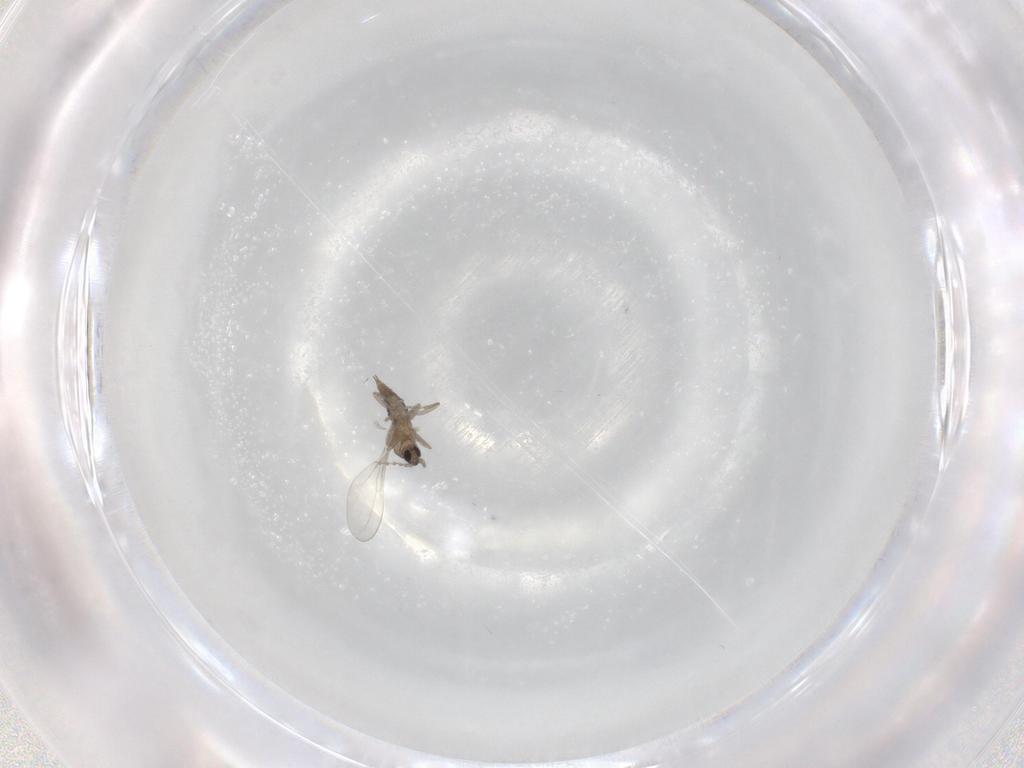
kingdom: Animalia
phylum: Arthropoda
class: Insecta
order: Diptera
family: Cecidomyiidae
